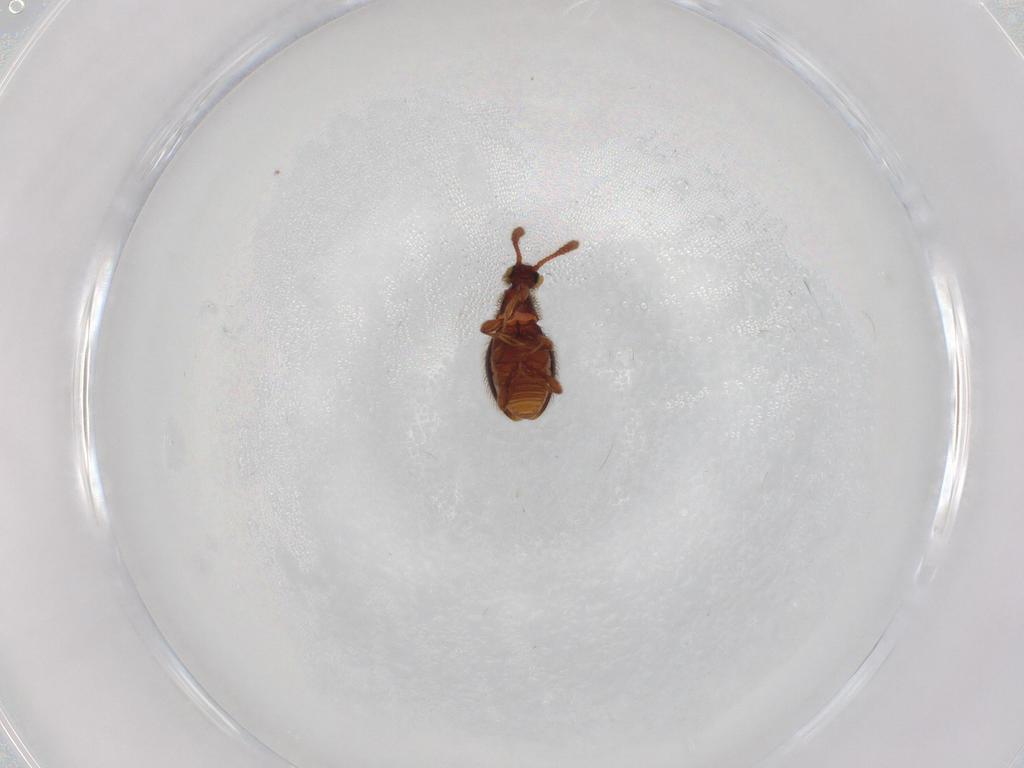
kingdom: Animalia
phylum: Arthropoda
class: Insecta
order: Coleoptera
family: Staphylinidae
